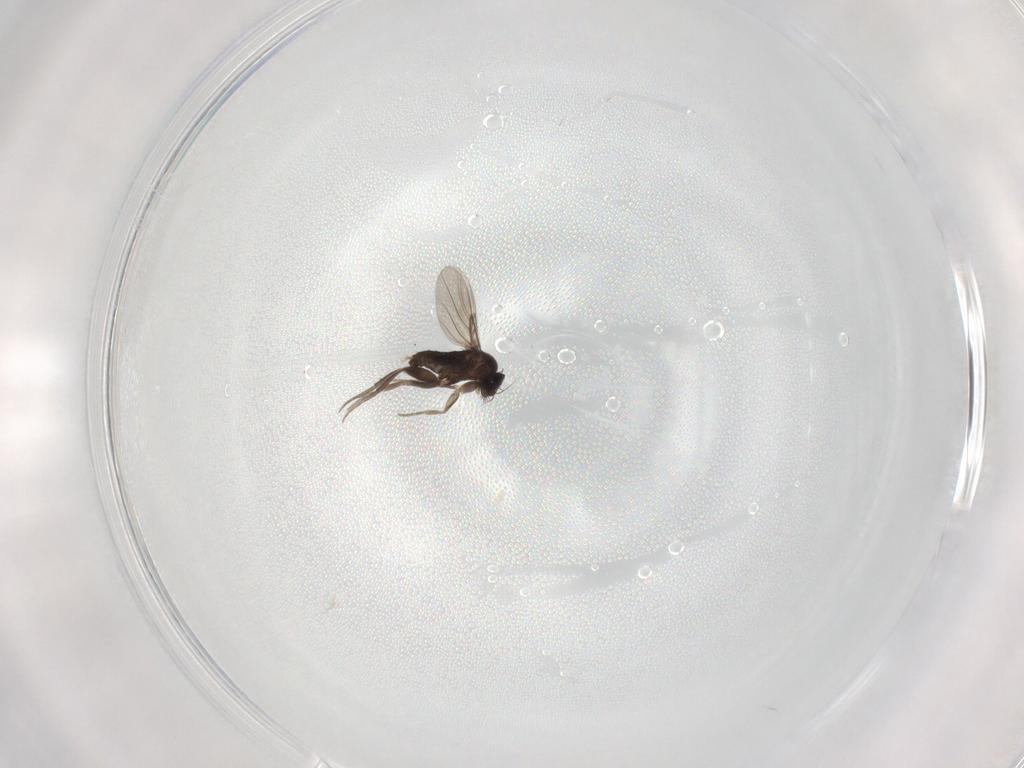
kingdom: Animalia
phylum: Arthropoda
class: Insecta
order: Diptera
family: Phoridae
